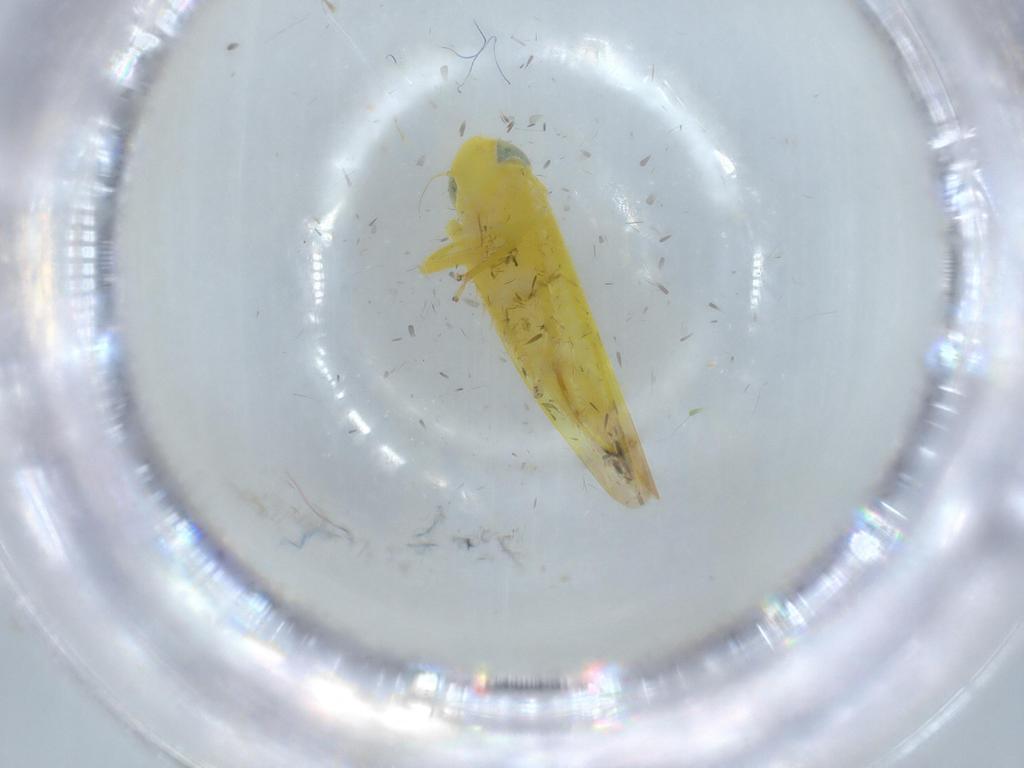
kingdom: Animalia
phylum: Arthropoda
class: Insecta
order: Hemiptera
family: Cicadellidae
